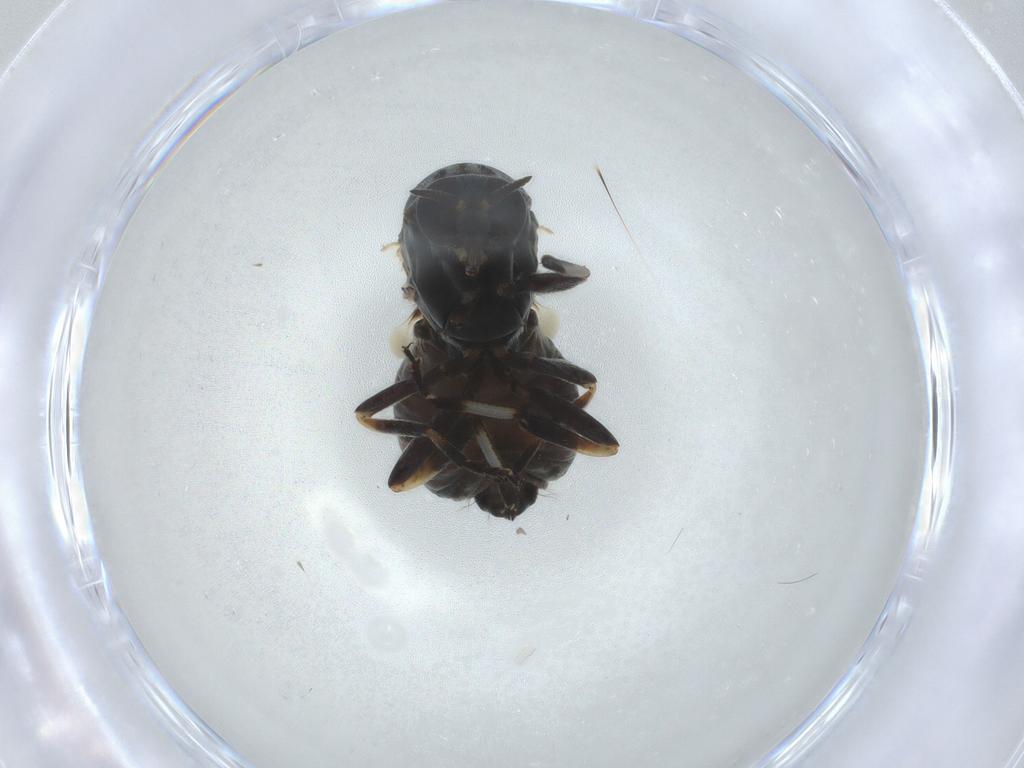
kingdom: Animalia
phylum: Arthropoda
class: Insecta
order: Diptera
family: Simuliidae
